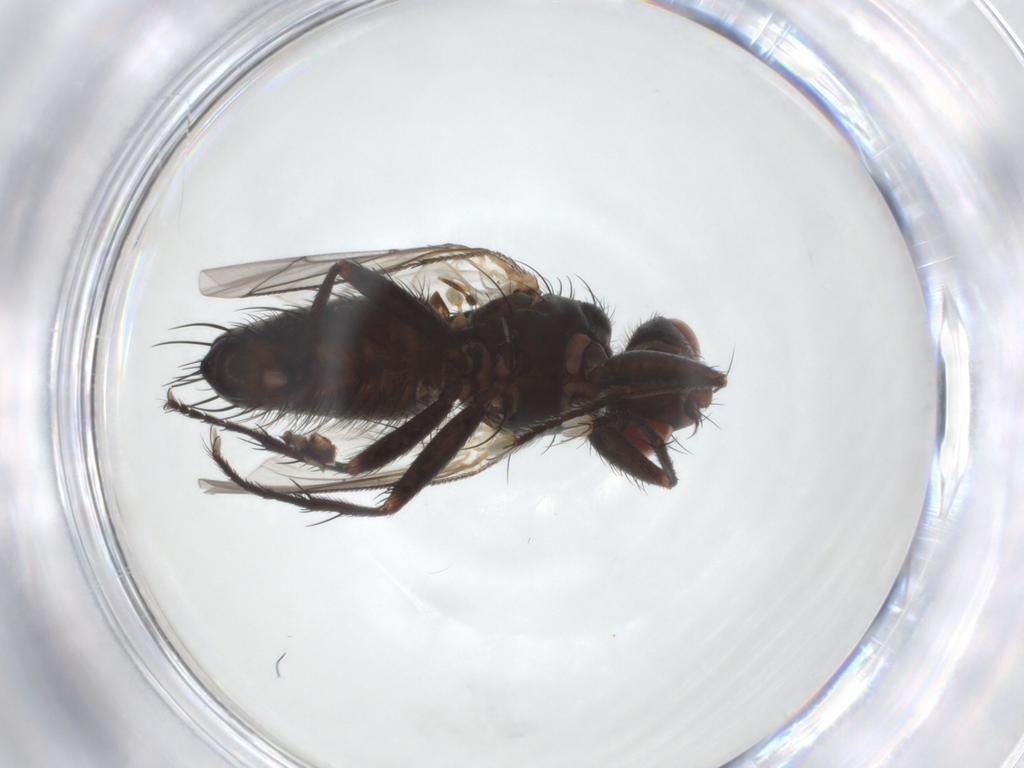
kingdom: Animalia
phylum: Arthropoda
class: Insecta
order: Diptera
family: Sarcophagidae
